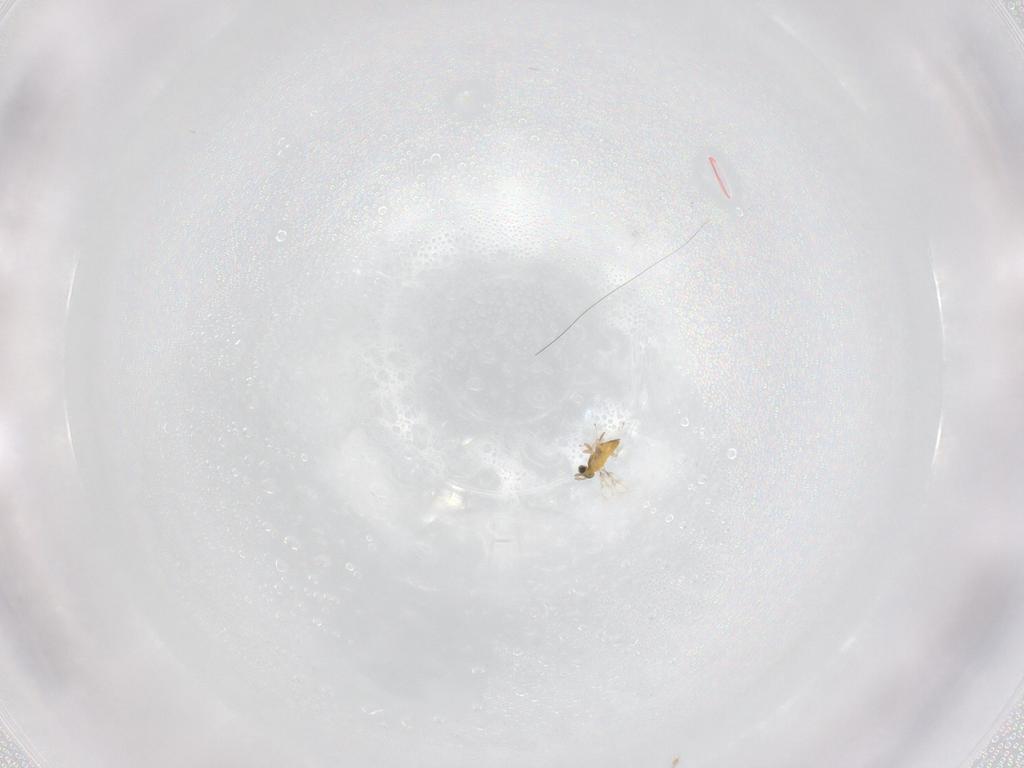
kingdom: Animalia
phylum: Arthropoda
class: Insecta
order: Hymenoptera
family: Trichogrammatidae
